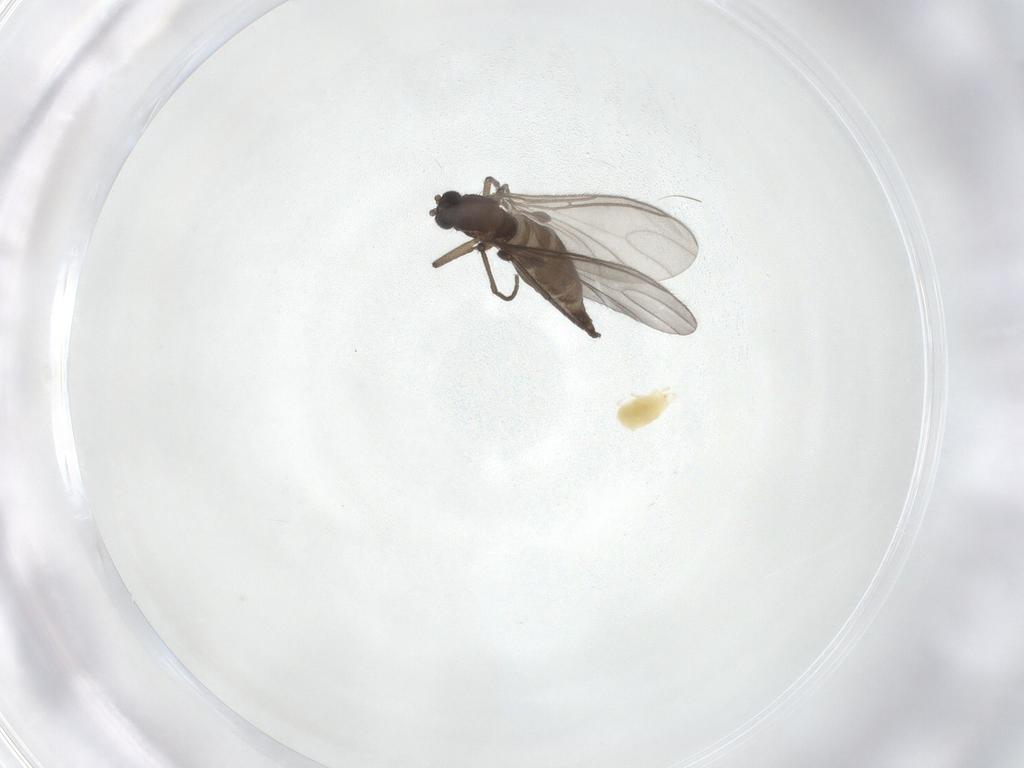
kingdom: Animalia
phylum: Arthropoda
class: Insecta
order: Diptera
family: Sciaridae
